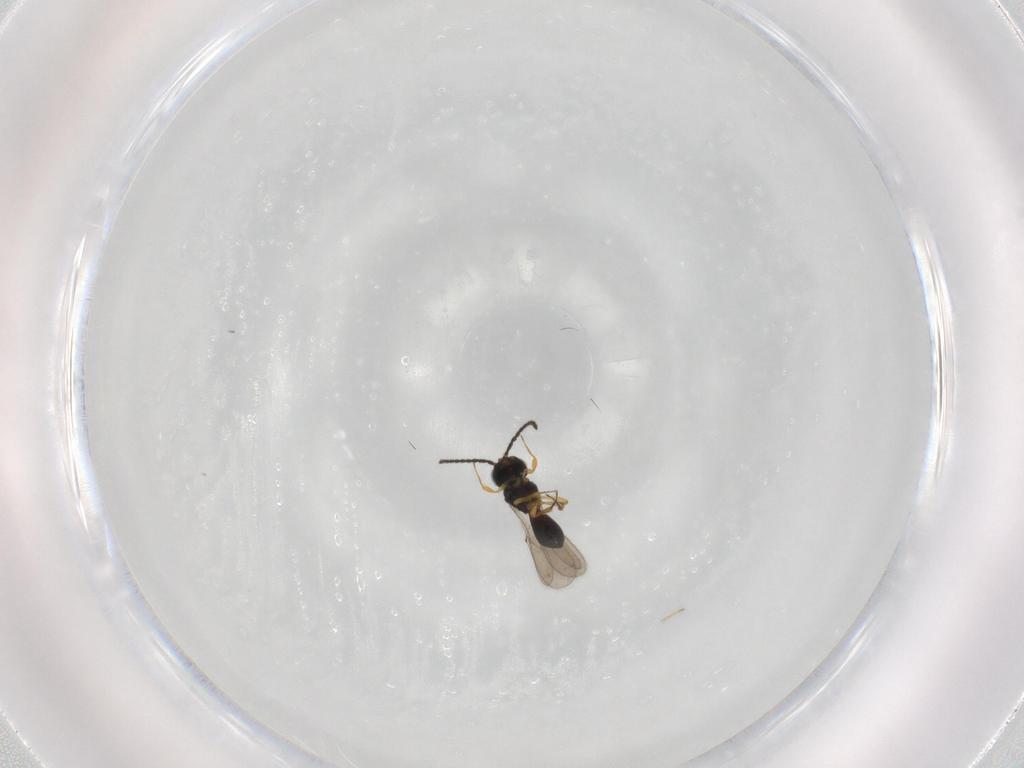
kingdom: Animalia
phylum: Arthropoda
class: Insecta
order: Hymenoptera
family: Scelionidae
